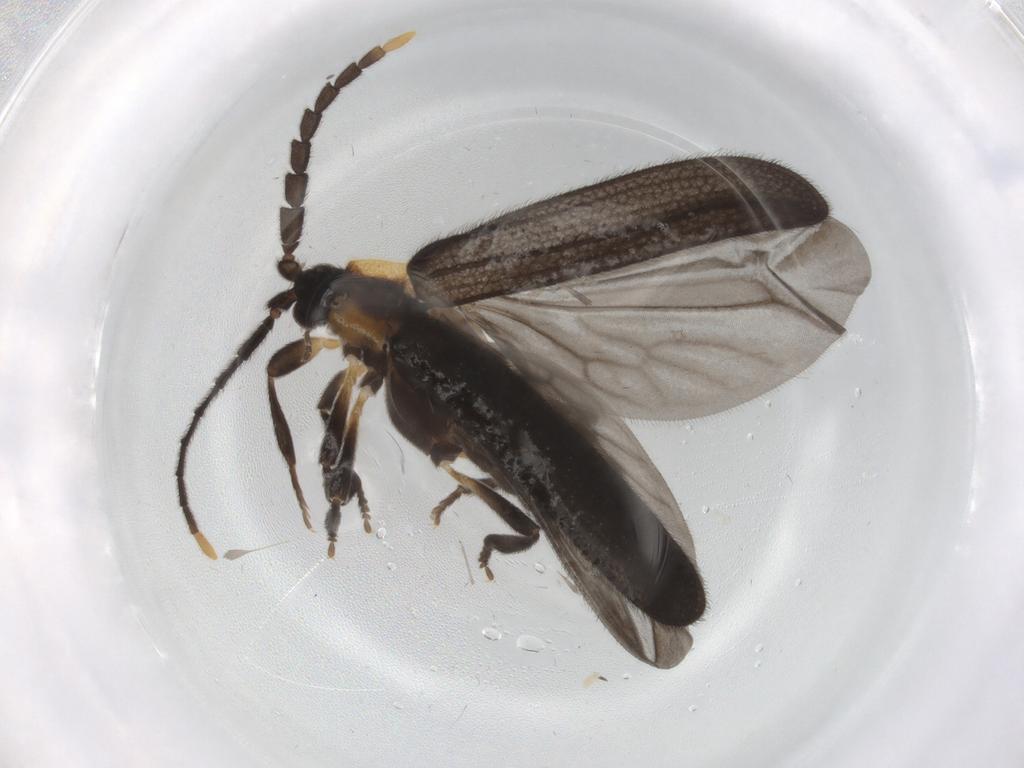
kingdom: Animalia
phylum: Arthropoda
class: Insecta
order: Coleoptera
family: Lycidae
